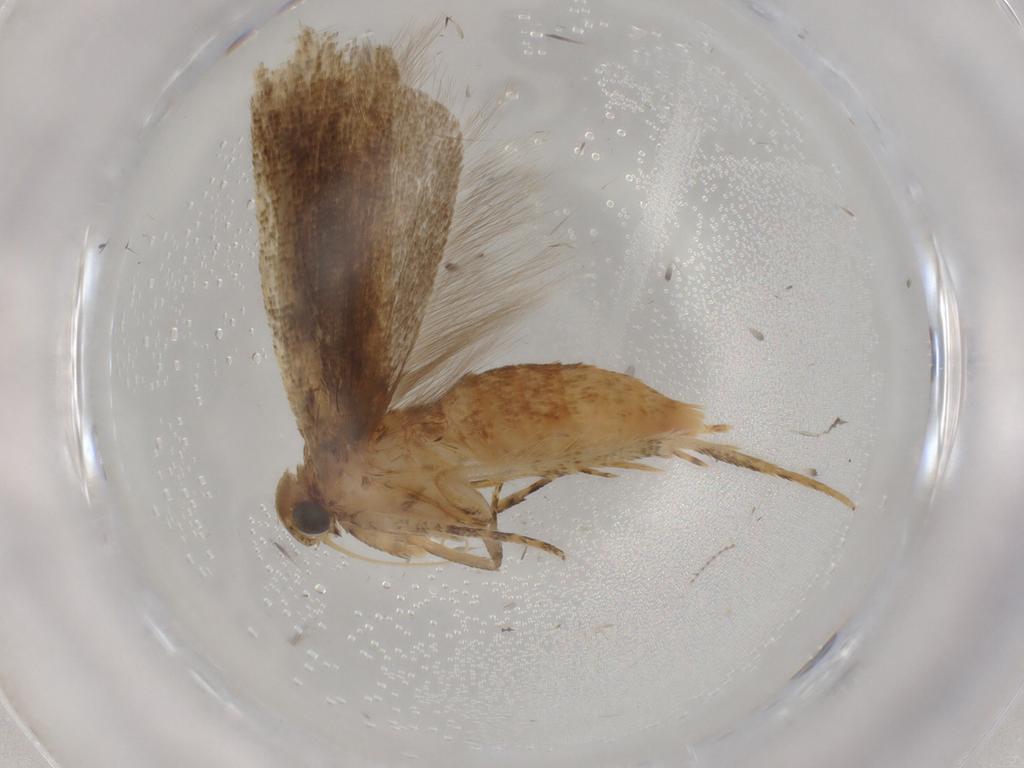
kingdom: Animalia
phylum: Arthropoda
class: Insecta
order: Lepidoptera
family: Gelechiidae
